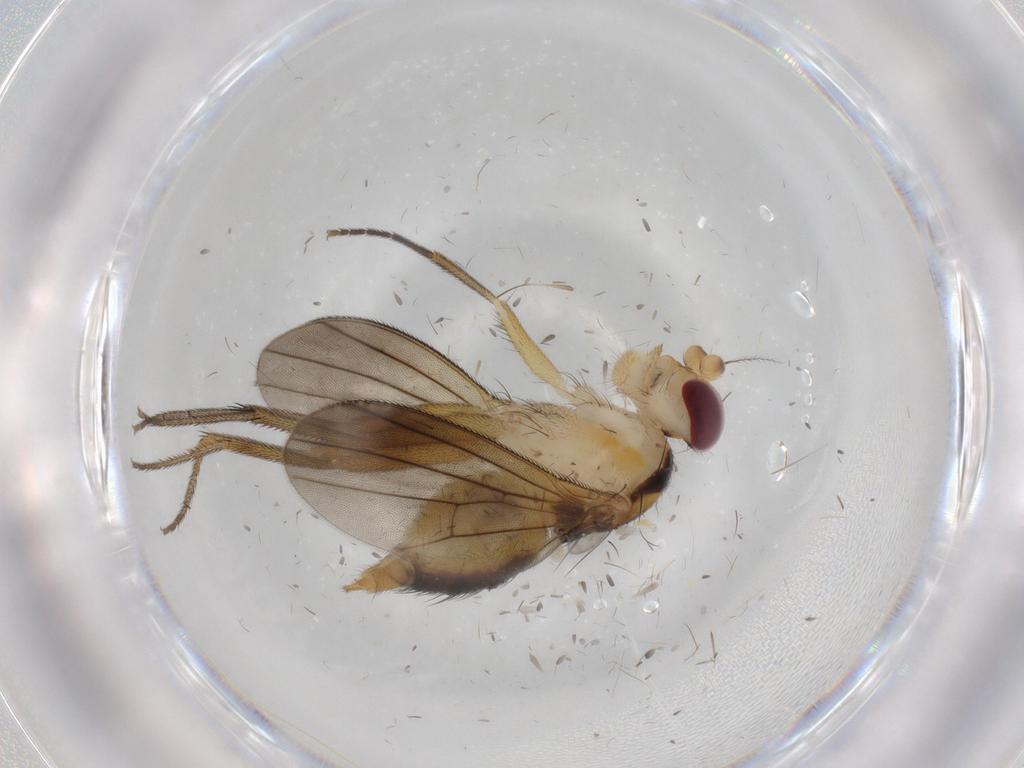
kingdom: Animalia
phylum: Arthropoda
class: Insecta
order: Diptera
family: Clusiidae
